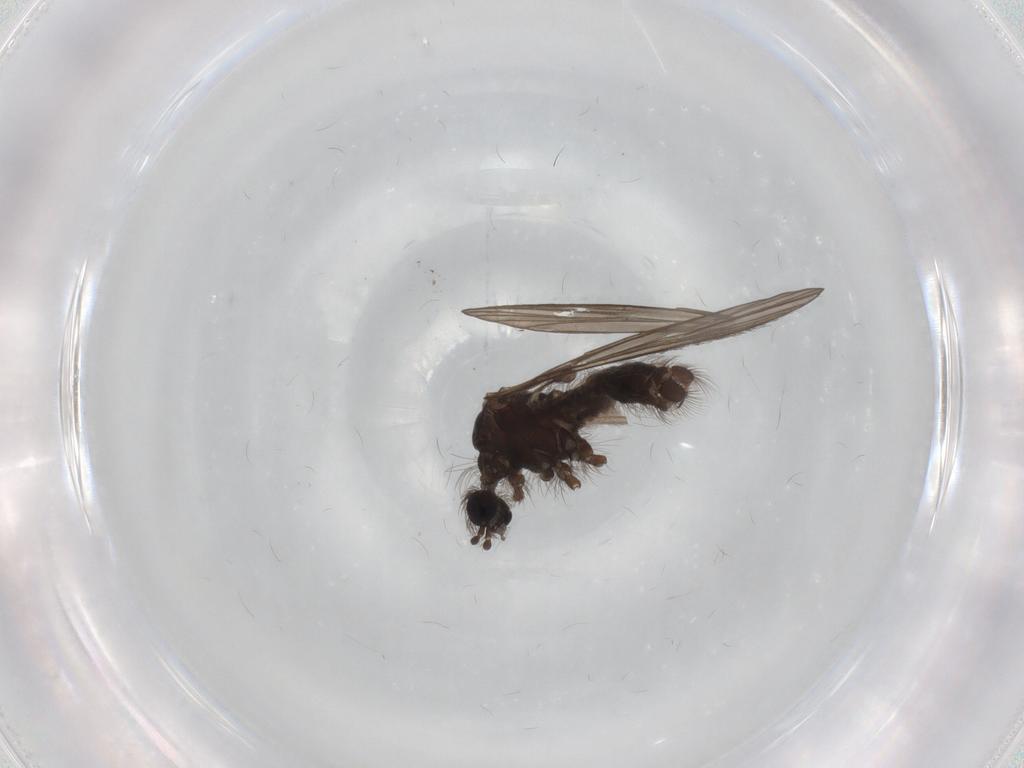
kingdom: Animalia
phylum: Arthropoda
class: Insecta
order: Diptera
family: Limoniidae
